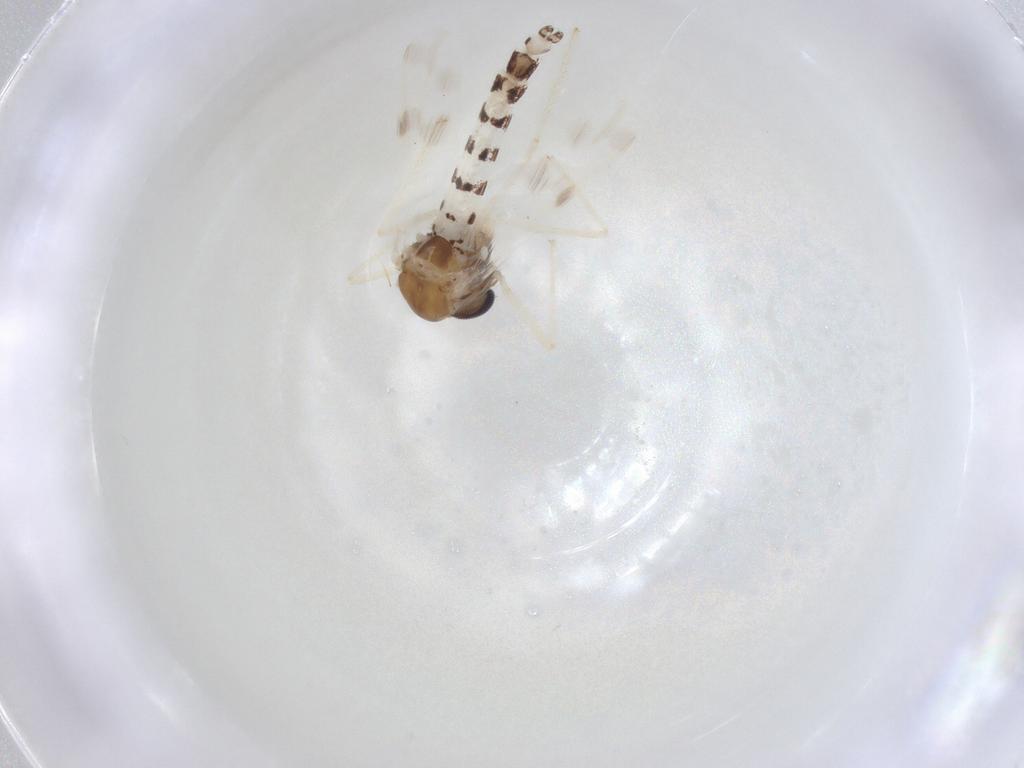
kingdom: Animalia
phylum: Arthropoda
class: Insecta
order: Diptera
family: Chironomidae
